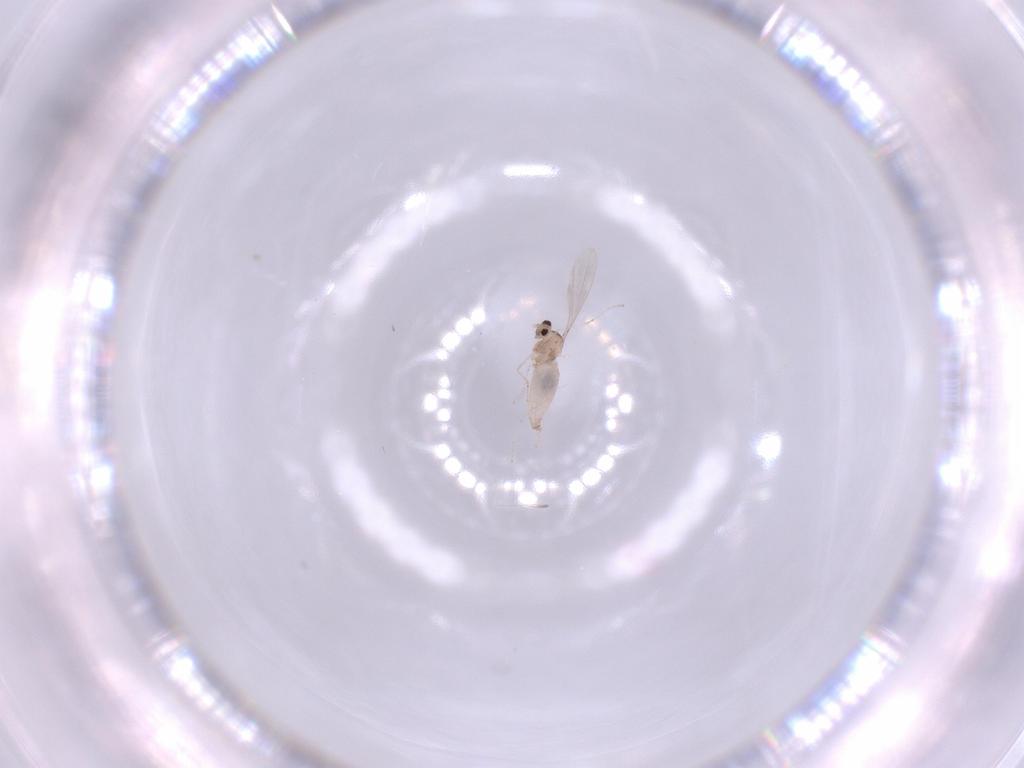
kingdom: Animalia
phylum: Arthropoda
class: Insecta
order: Diptera
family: Cecidomyiidae
